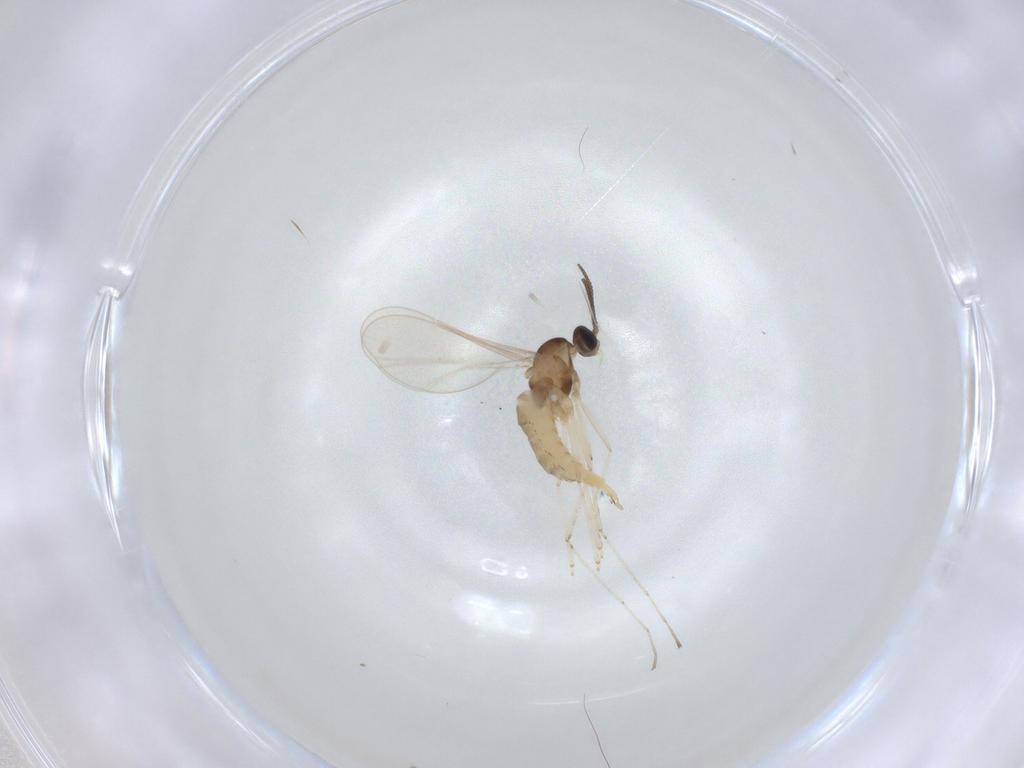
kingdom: Animalia
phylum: Arthropoda
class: Insecta
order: Diptera
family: Cecidomyiidae
